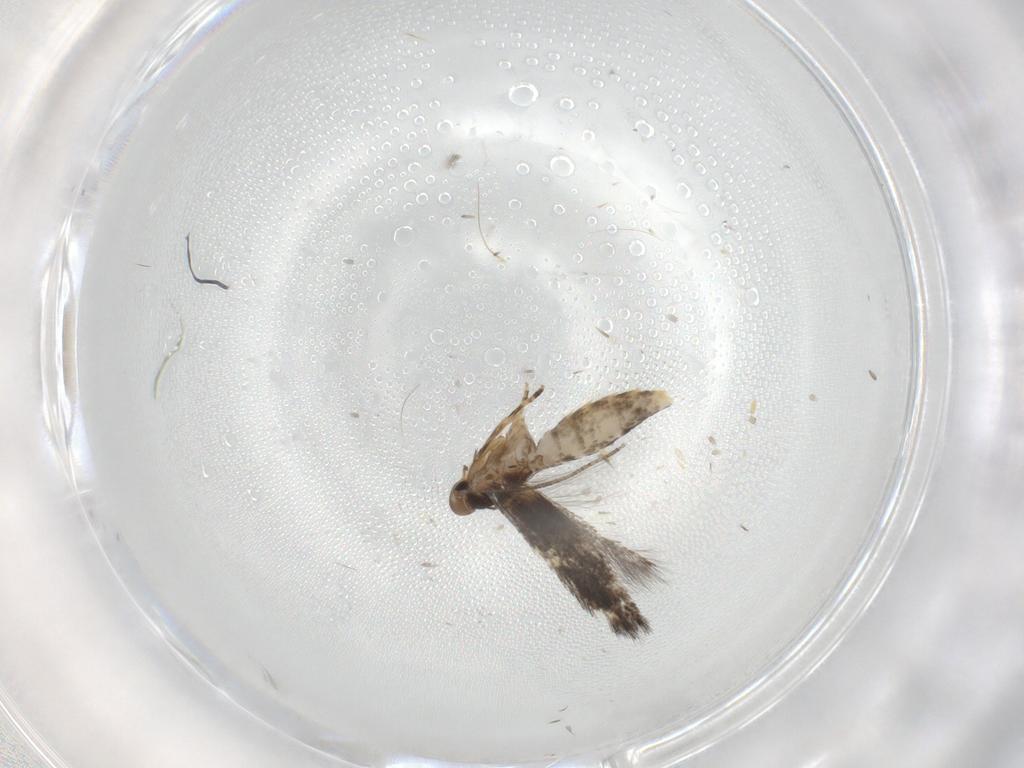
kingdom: Animalia
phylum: Arthropoda
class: Insecta
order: Lepidoptera
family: Elachistidae
